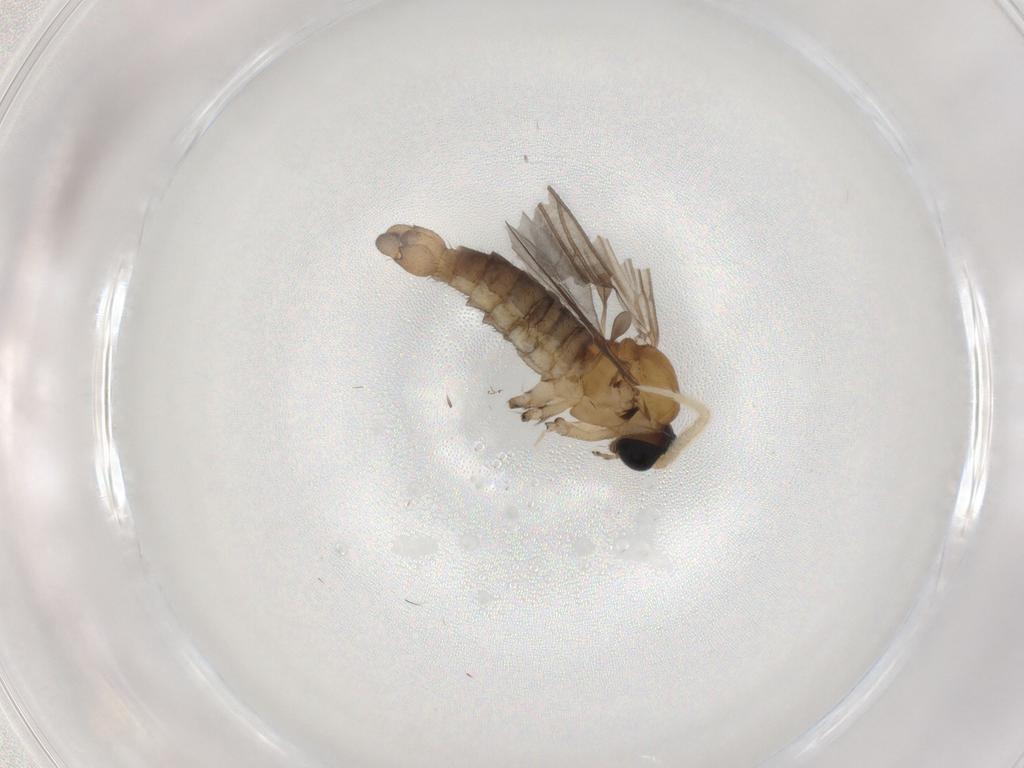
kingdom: Animalia
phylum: Arthropoda
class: Insecta
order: Diptera
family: Sciaridae
